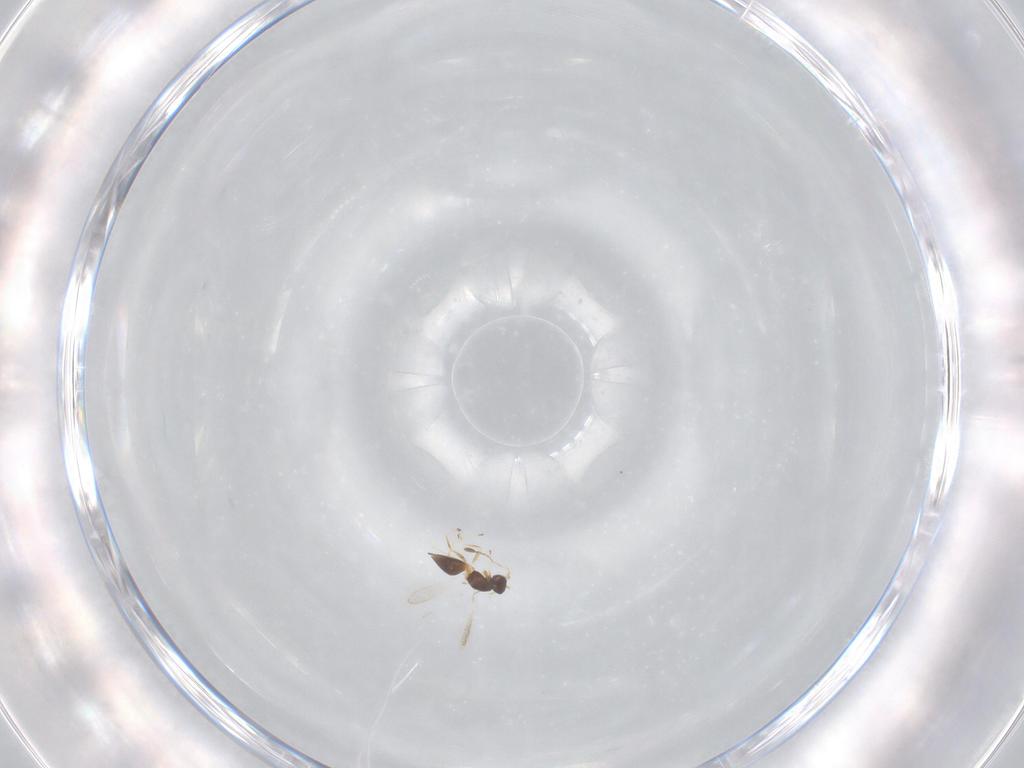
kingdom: Animalia
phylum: Arthropoda
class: Insecta
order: Hymenoptera
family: Mymaridae
